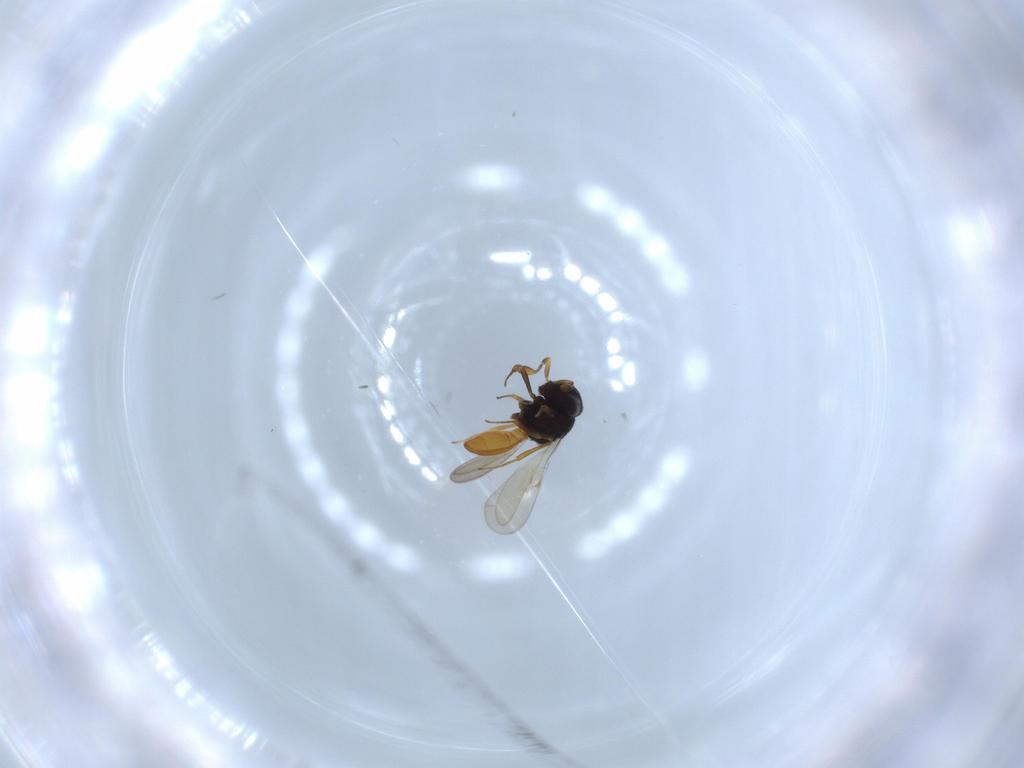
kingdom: Animalia
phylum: Arthropoda
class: Insecta
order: Hymenoptera
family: Scelionidae
